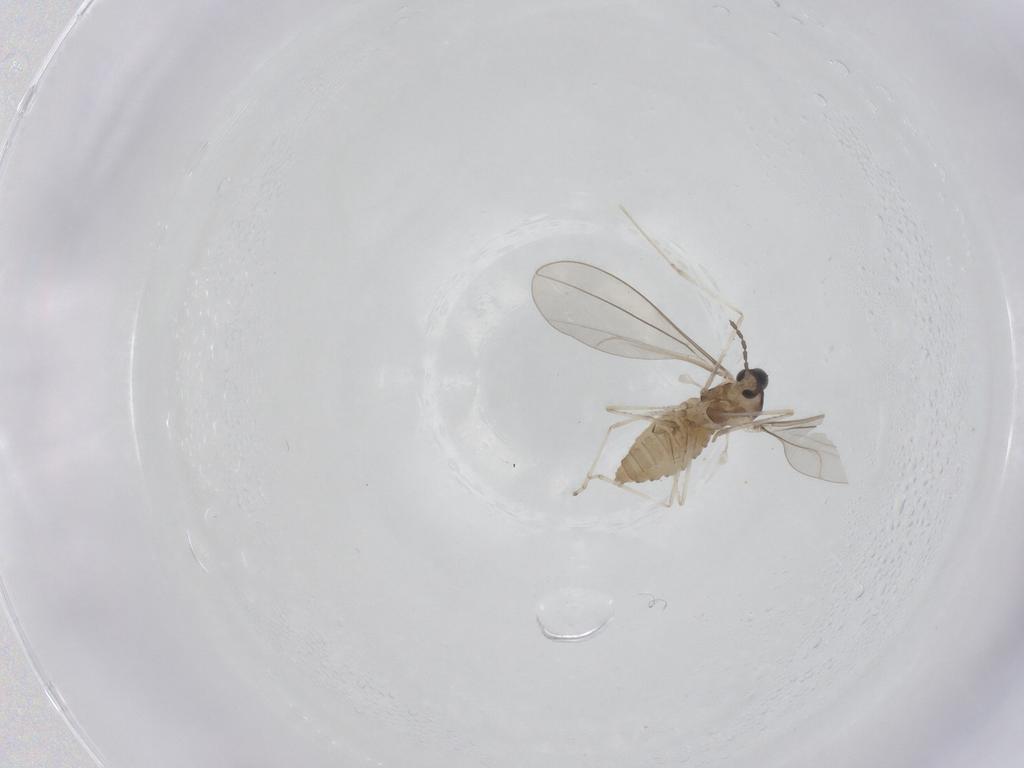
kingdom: Animalia
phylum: Arthropoda
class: Insecta
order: Diptera
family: Cecidomyiidae
